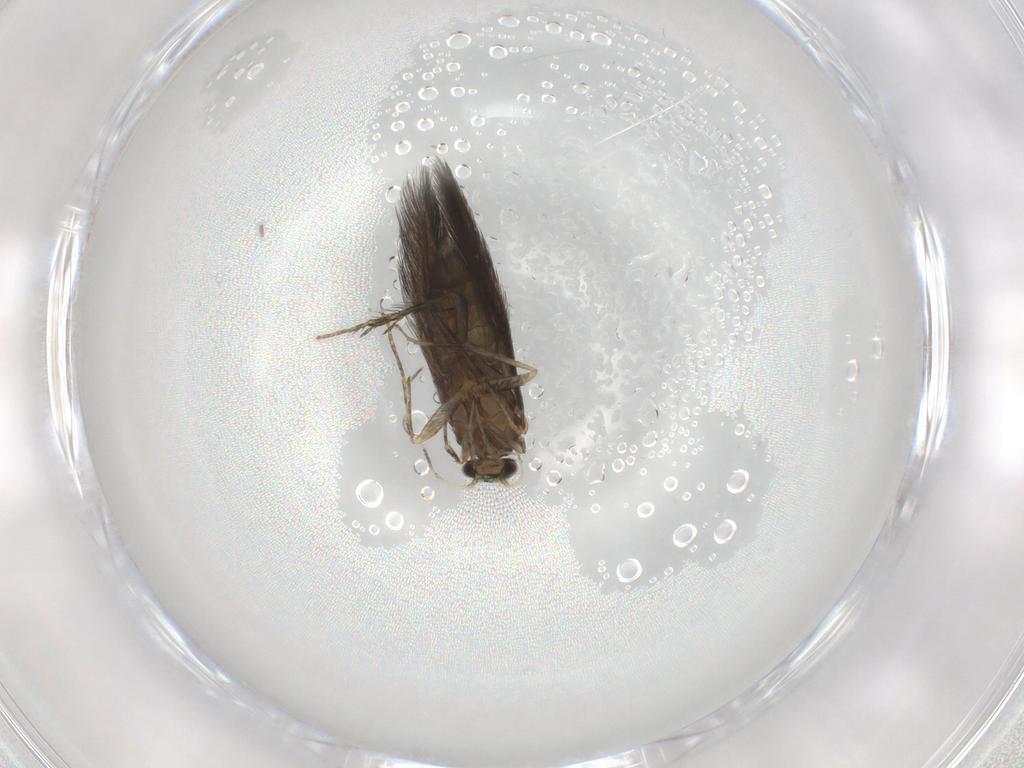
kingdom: Animalia
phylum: Arthropoda
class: Insecta
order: Trichoptera
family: Hydroptilidae
